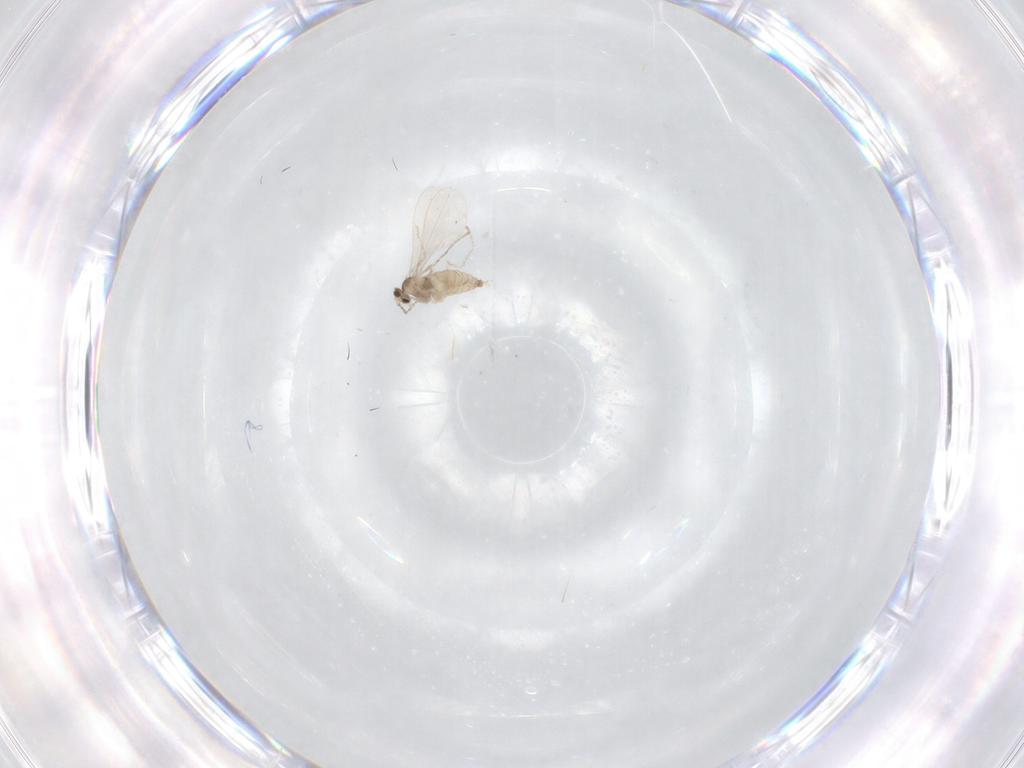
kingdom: Animalia
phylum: Arthropoda
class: Insecta
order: Diptera
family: Cecidomyiidae
